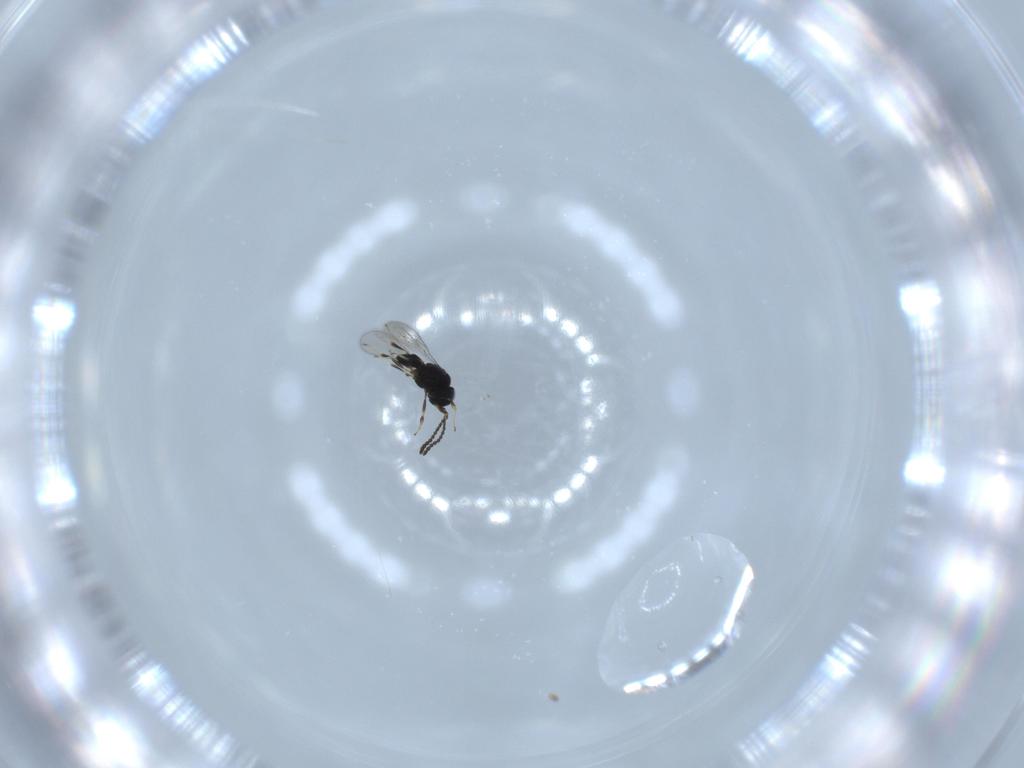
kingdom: Animalia
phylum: Arthropoda
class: Insecta
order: Hymenoptera
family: Scelionidae
